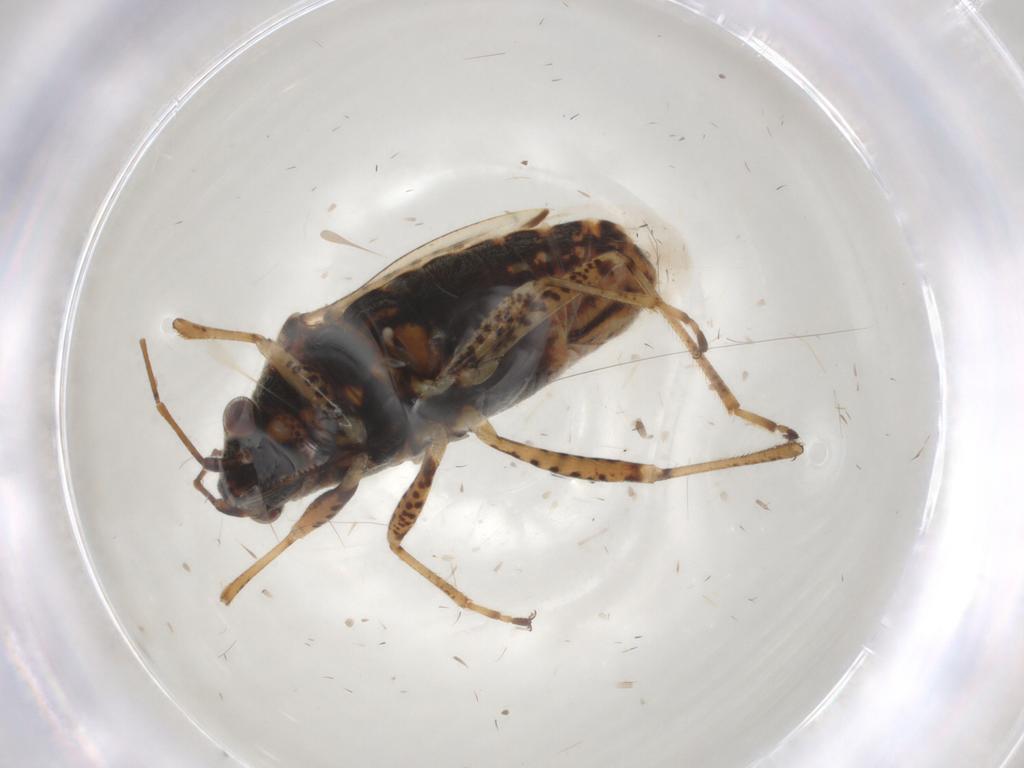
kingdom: Animalia
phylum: Arthropoda
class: Insecta
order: Hemiptera
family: Lygaeidae
